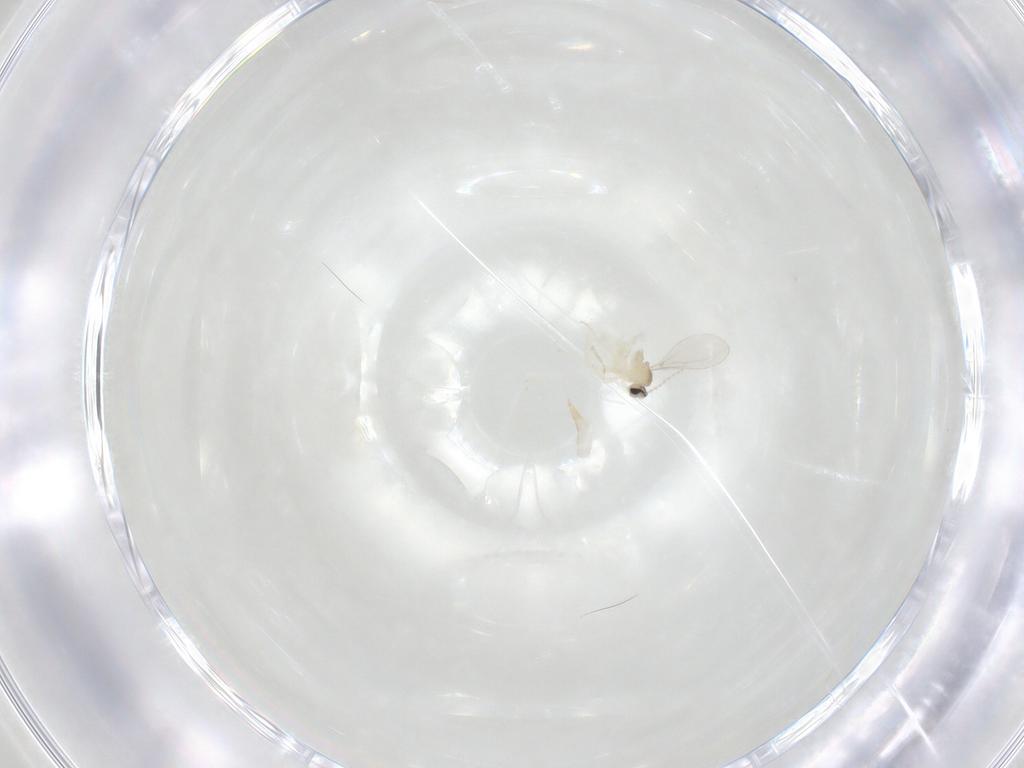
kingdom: Animalia
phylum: Arthropoda
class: Insecta
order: Diptera
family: Cecidomyiidae
